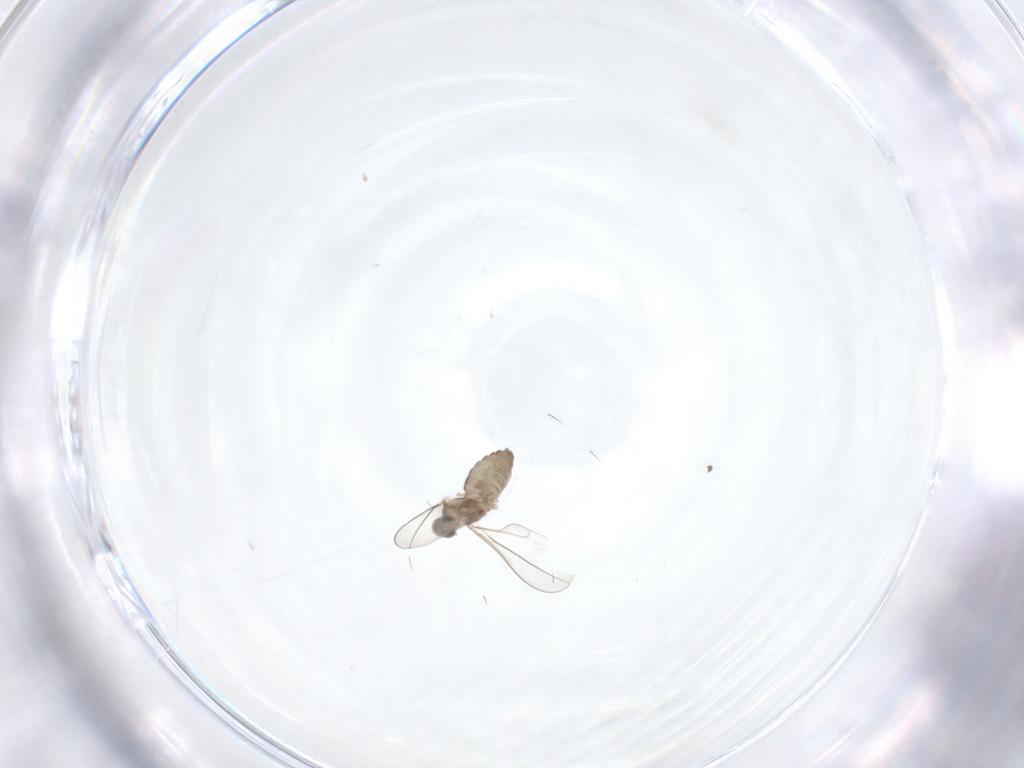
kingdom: Animalia
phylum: Arthropoda
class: Insecta
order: Diptera
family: Cecidomyiidae
